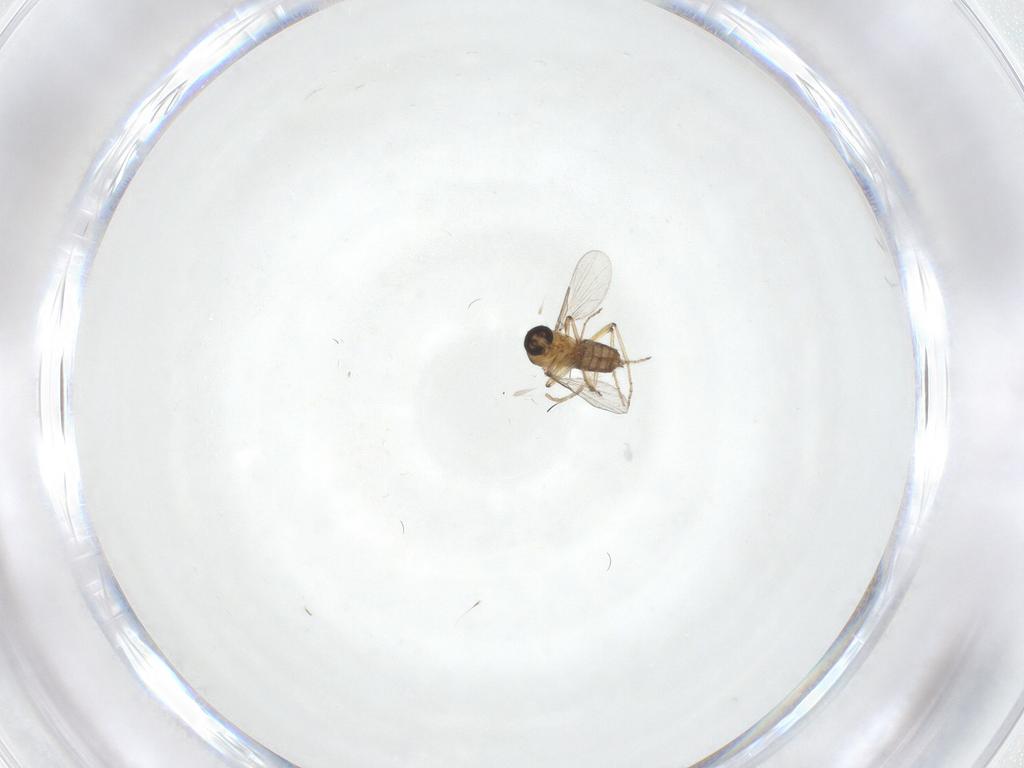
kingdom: Animalia
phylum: Arthropoda
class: Insecta
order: Diptera
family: Ceratopogonidae
